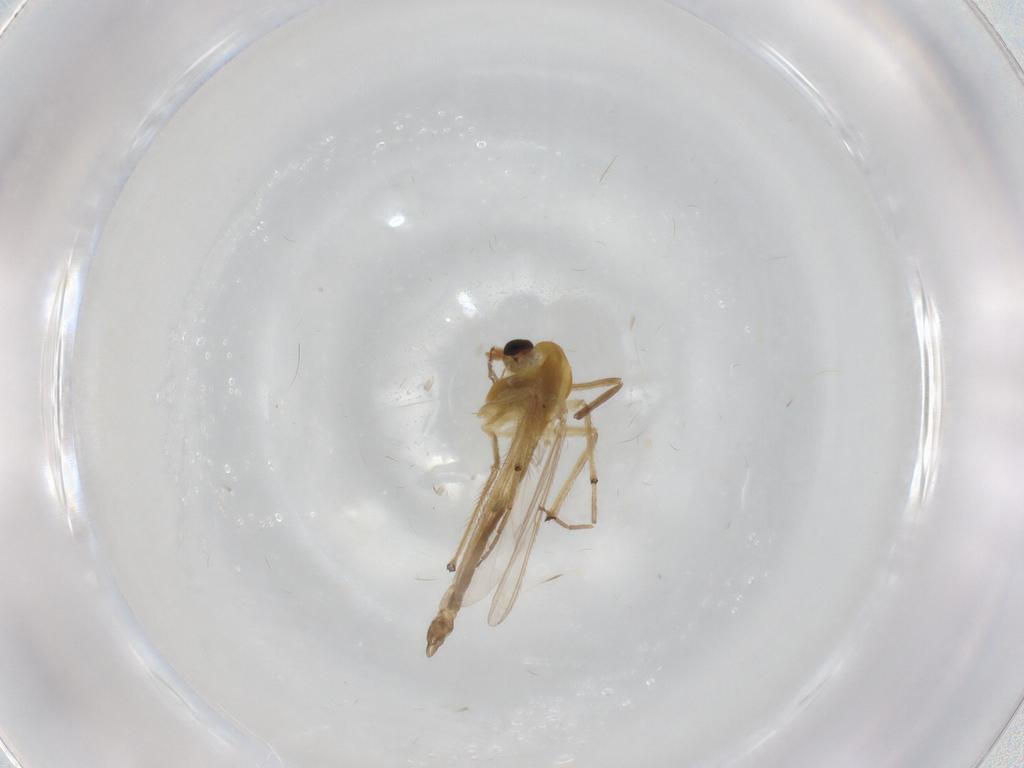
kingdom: Animalia
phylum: Arthropoda
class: Insecta
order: Diptera
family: Chironomidae
